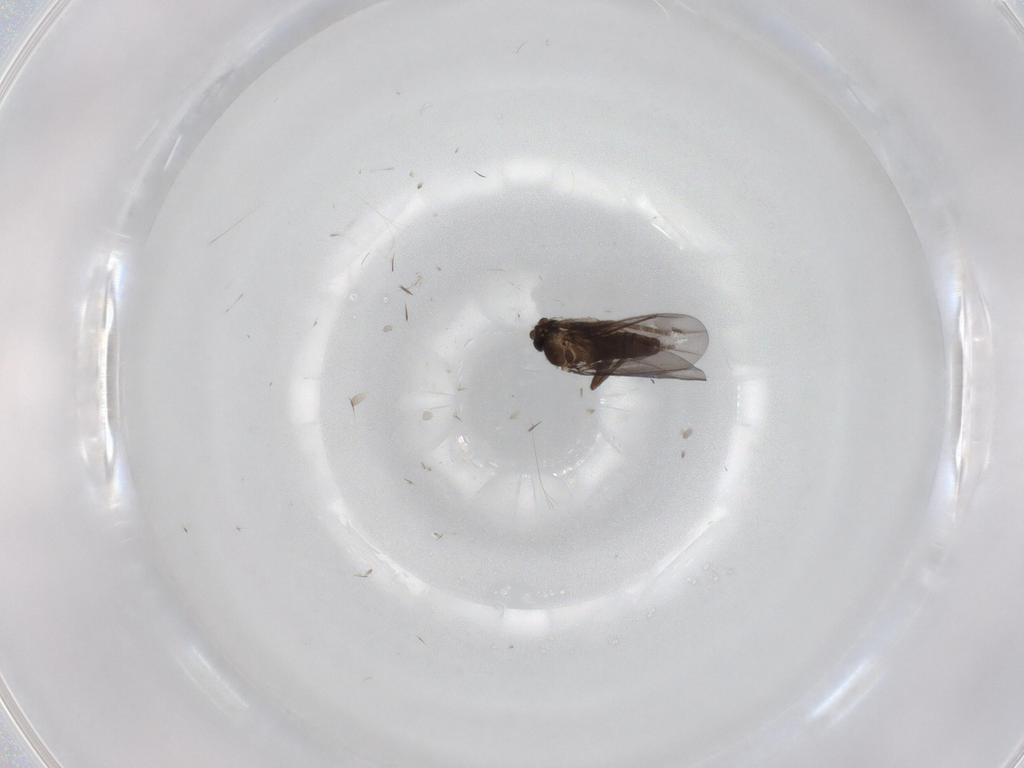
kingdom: Animalia
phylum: Arthropoda
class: Insecta
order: Diptera
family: Phoridae
